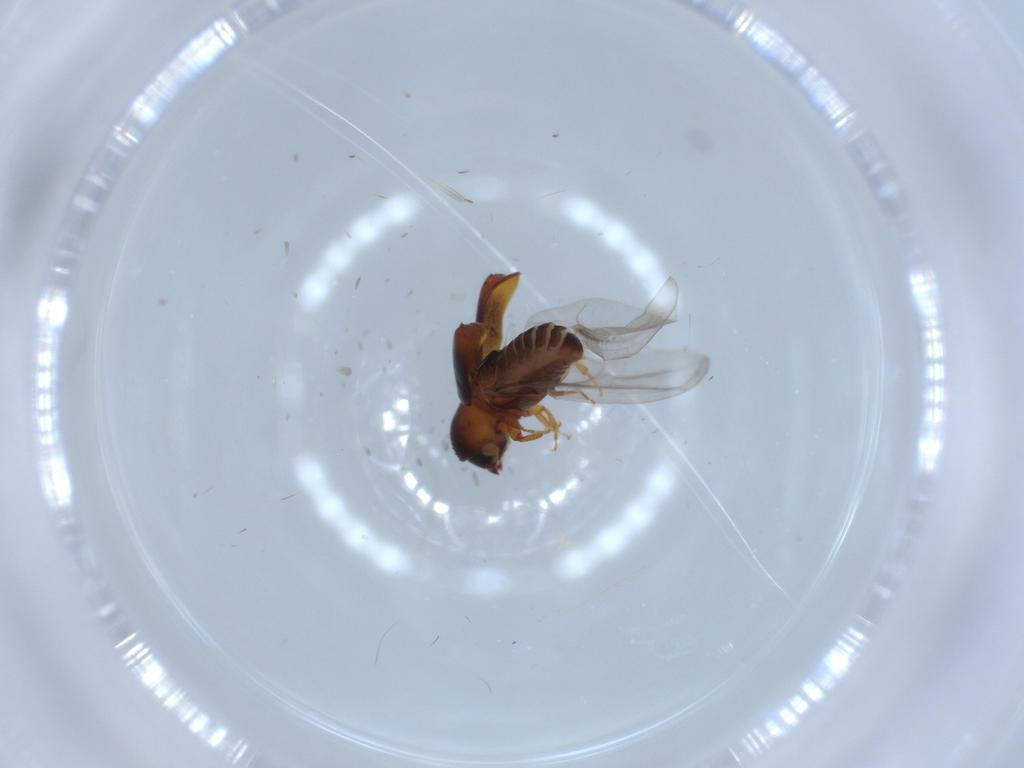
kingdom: Animalia
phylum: Arthropoda
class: Insecta
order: Coleoptera
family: Curculionidae
